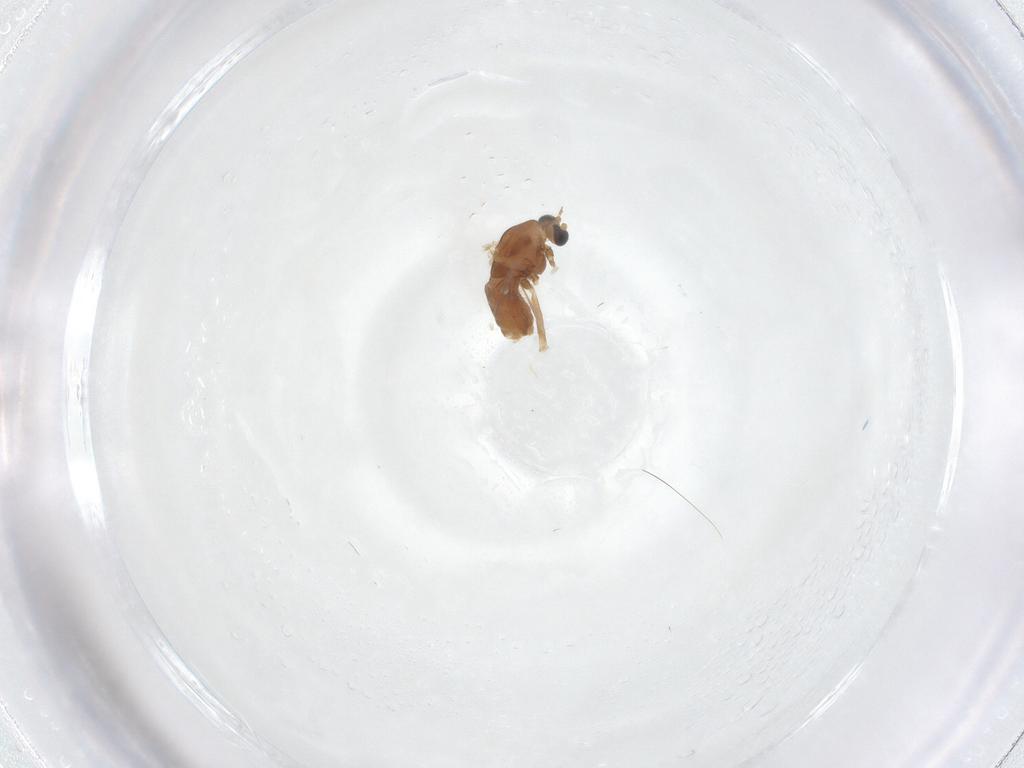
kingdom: Animalia
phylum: Arthropoda
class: Insecta
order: Diptera
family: Chironomidae
